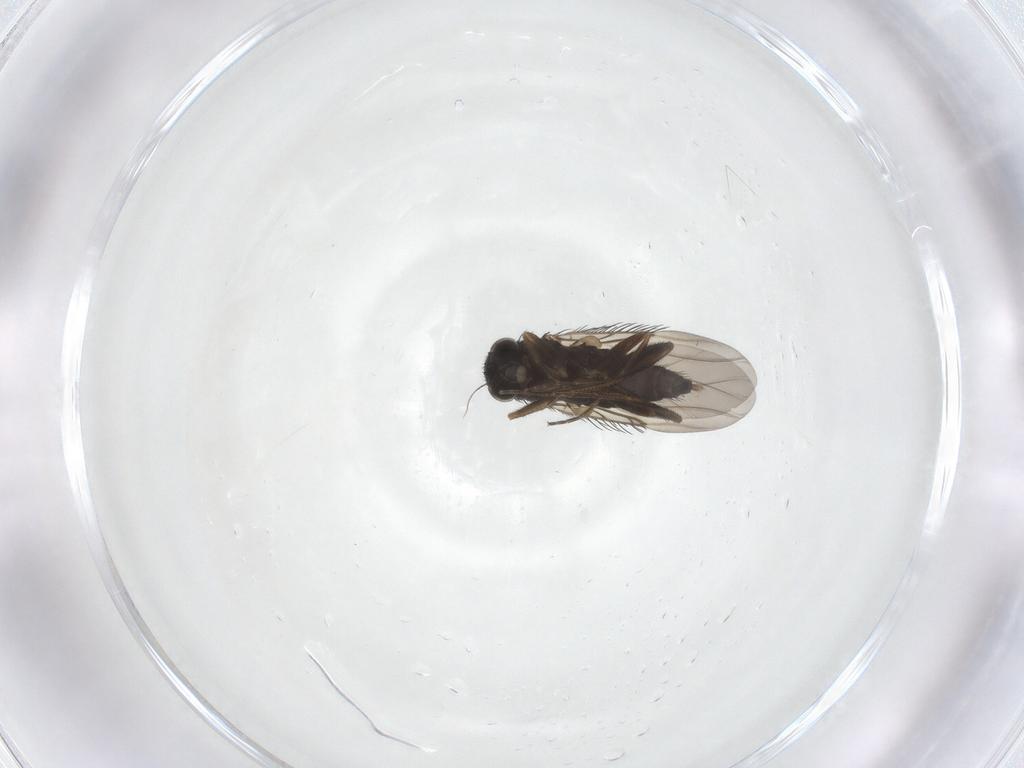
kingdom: Animalia
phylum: Arthropoda
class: Insecta
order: Diptera
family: Phoridae
